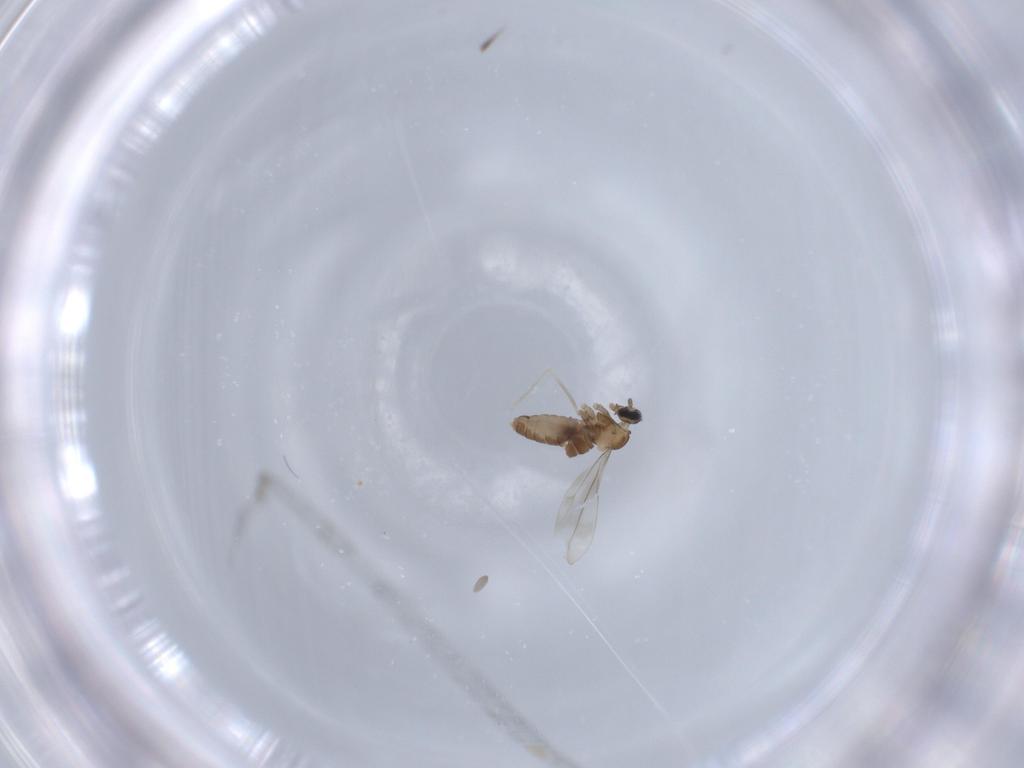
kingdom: Animalia
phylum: Arthropoda
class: Insecta
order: Diptera
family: Cecidomyiidae
